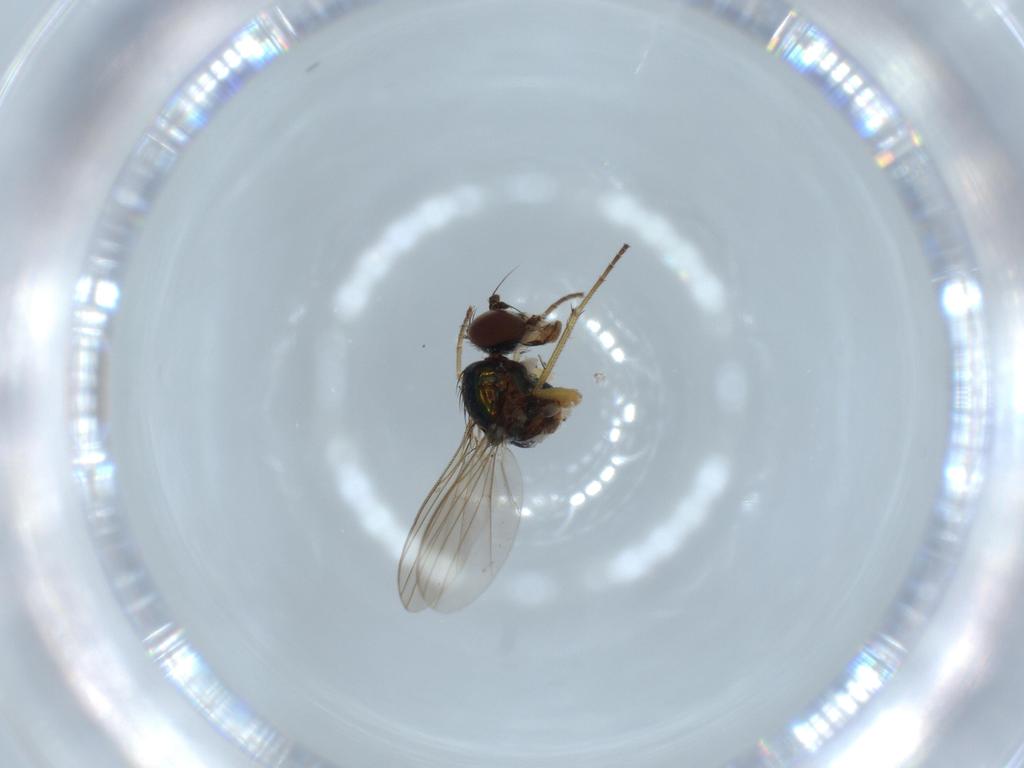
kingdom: Animalia
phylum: Arthropoda
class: Insecta
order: Diptera
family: Dolichopodidae
